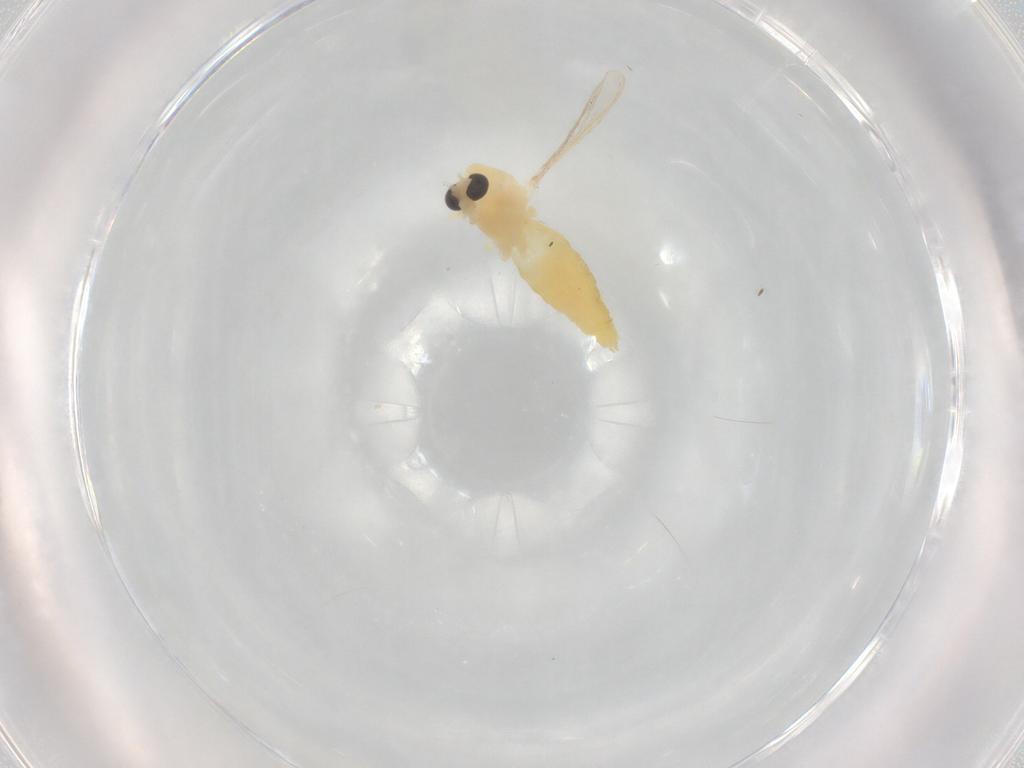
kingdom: Animalia
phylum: Arthropoda
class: Insecta
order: Diptera
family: Chironomidae
